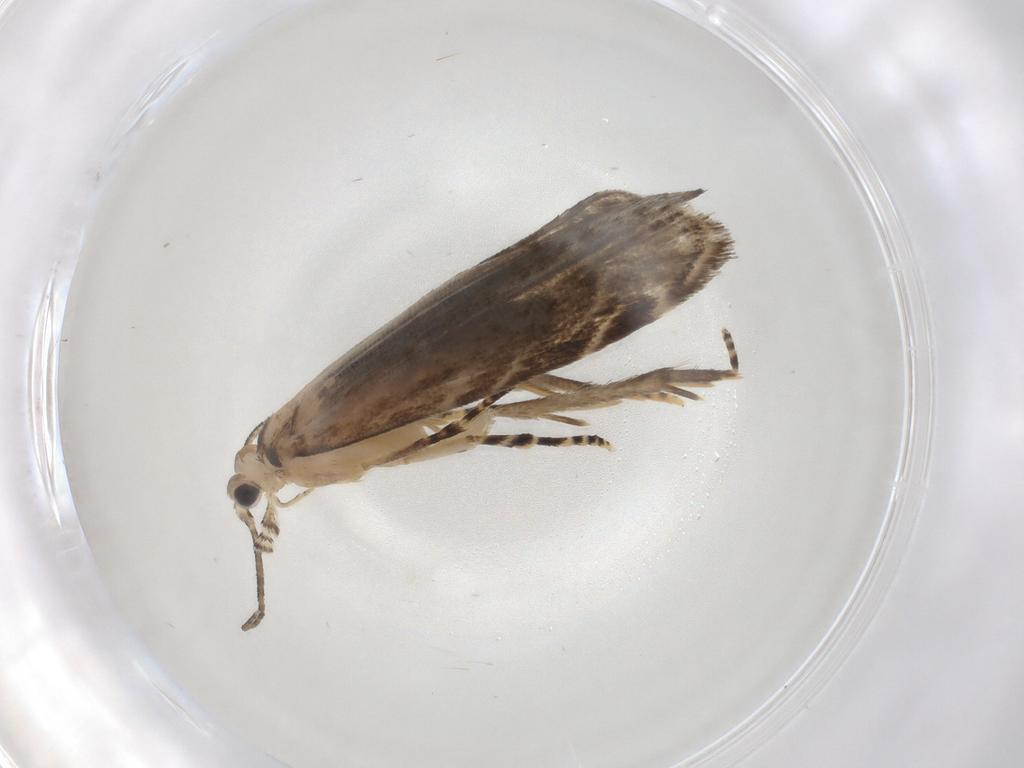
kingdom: Animalia
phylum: Arthropoda
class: Insecta
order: Lepidoptera
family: Tineidae
